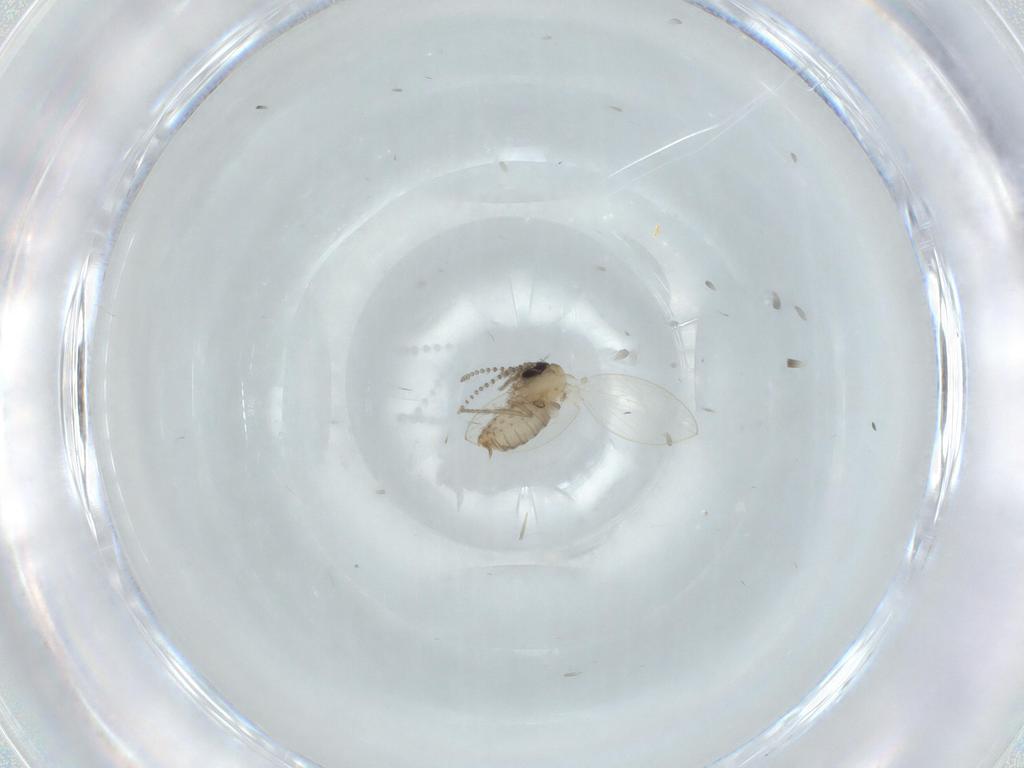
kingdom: Animalia
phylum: Arthropoda
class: Insecta
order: Diptera
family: Psychodidae
